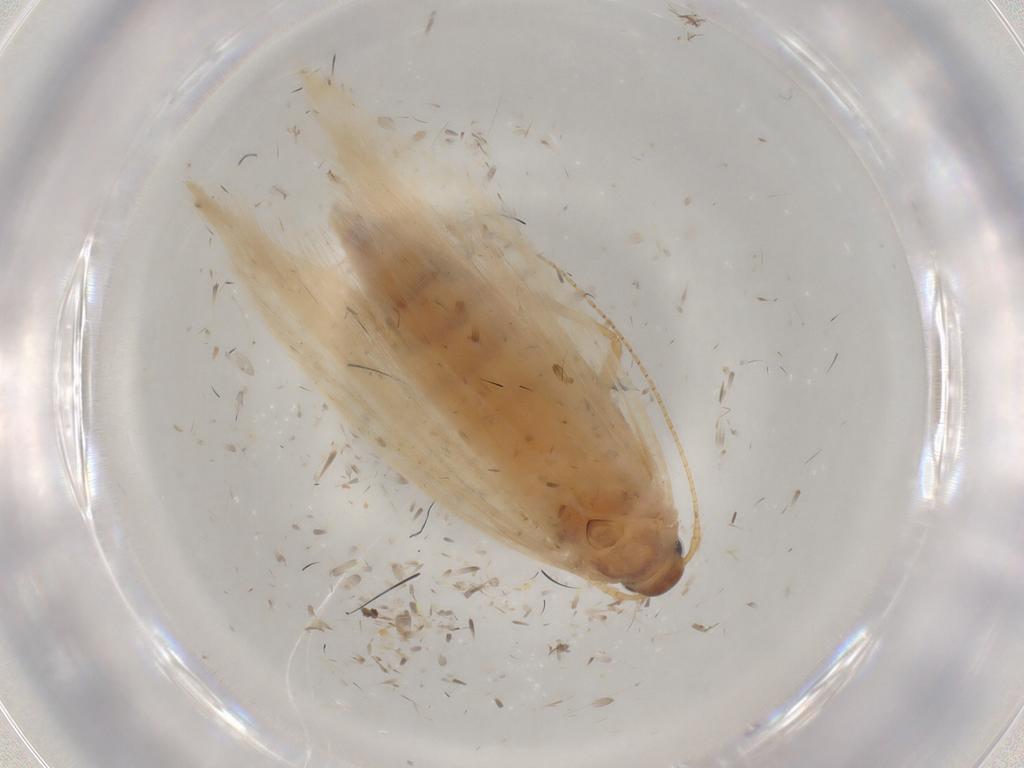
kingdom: Animalia
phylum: Arthropoda
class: Insecta
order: Lepidoptera
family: Gelechiidae
